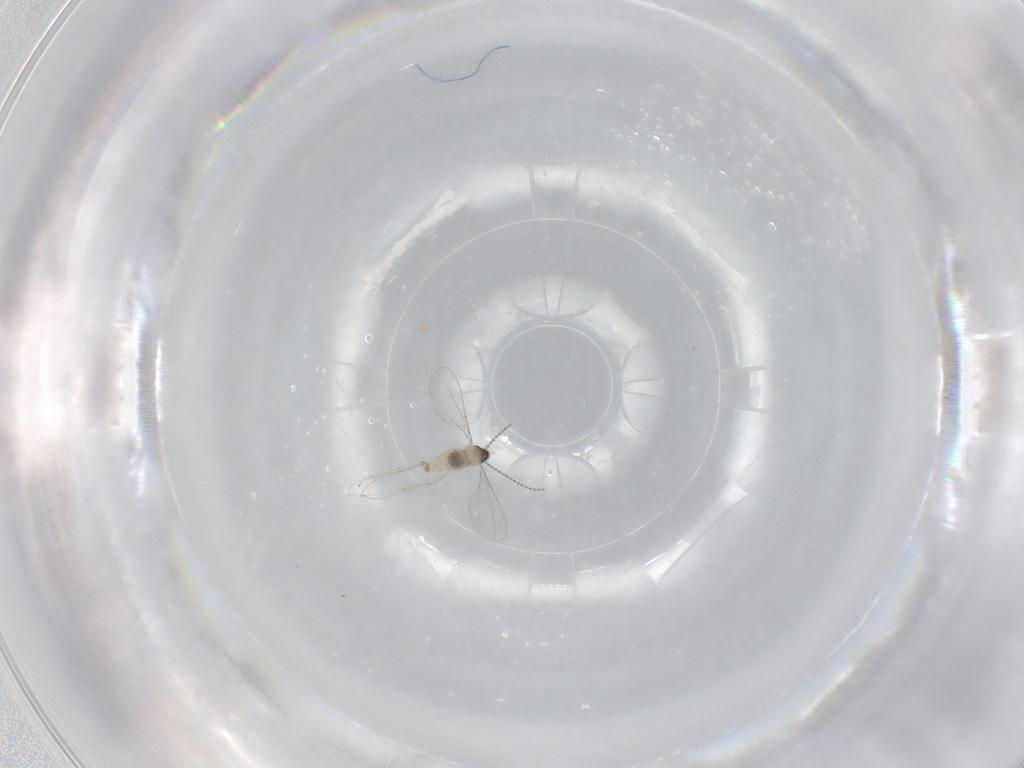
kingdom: Animalia
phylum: Arthropoda
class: Insecta
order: Diptera
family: Cecidomyiidae
